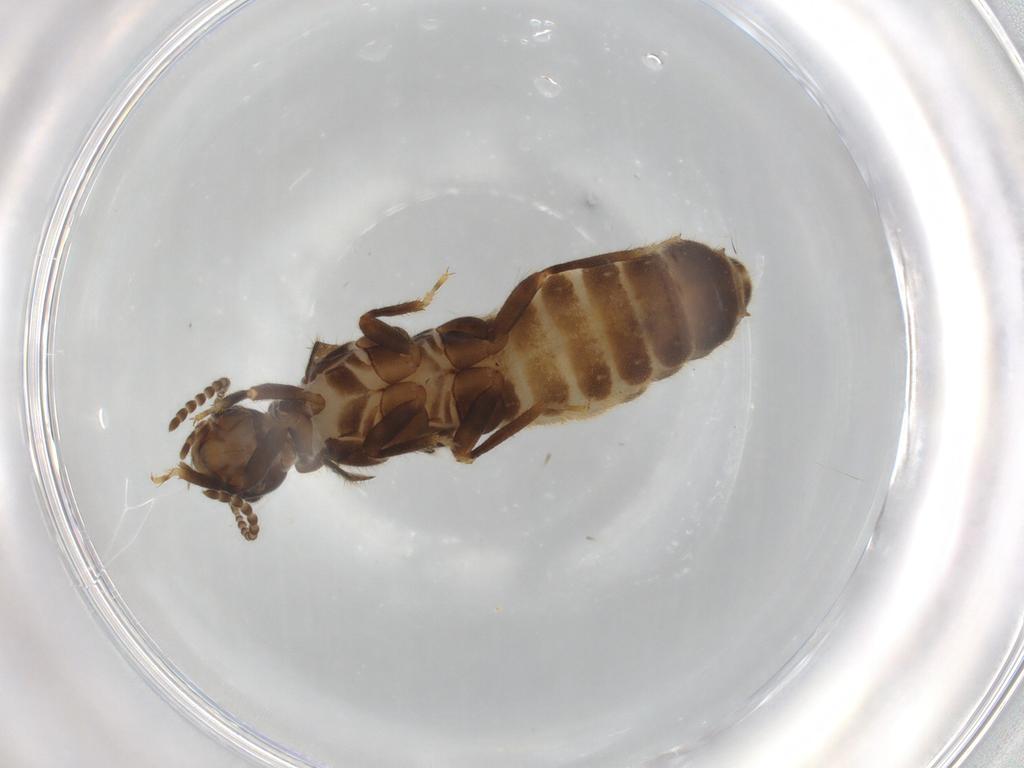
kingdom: Animalia
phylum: Arthropoda
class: Insecta
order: Blattodea
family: Termitidae
